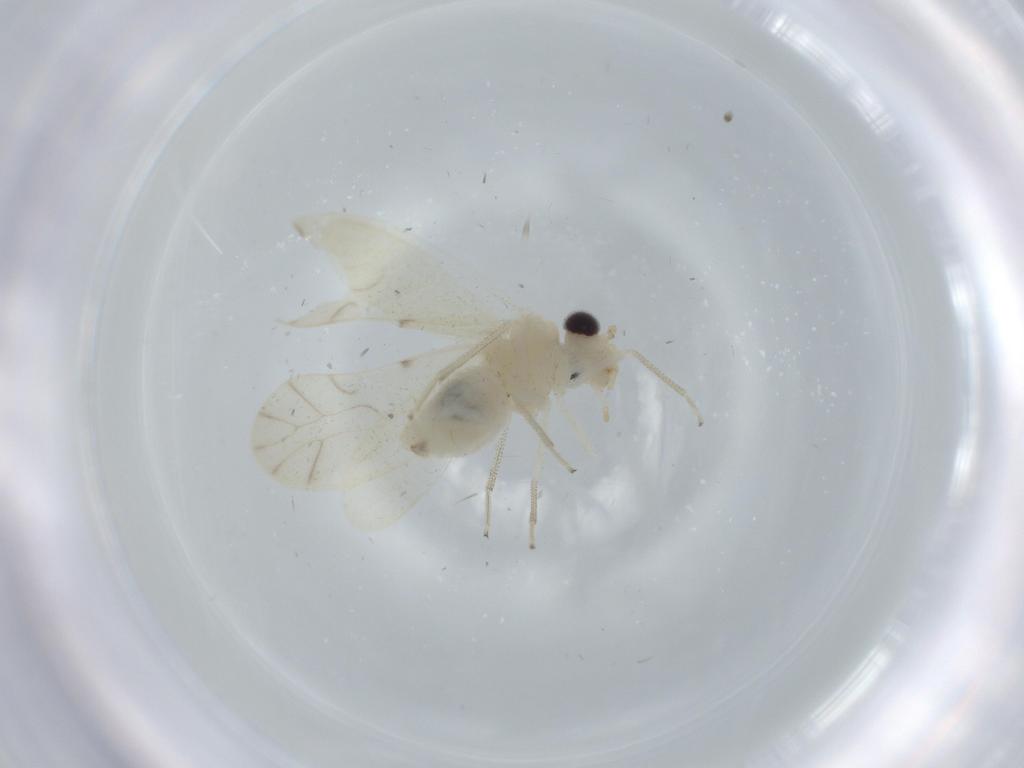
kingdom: Animalia
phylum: Arthropoda
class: Insecta
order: Psocodea
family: Caeciliusidae
